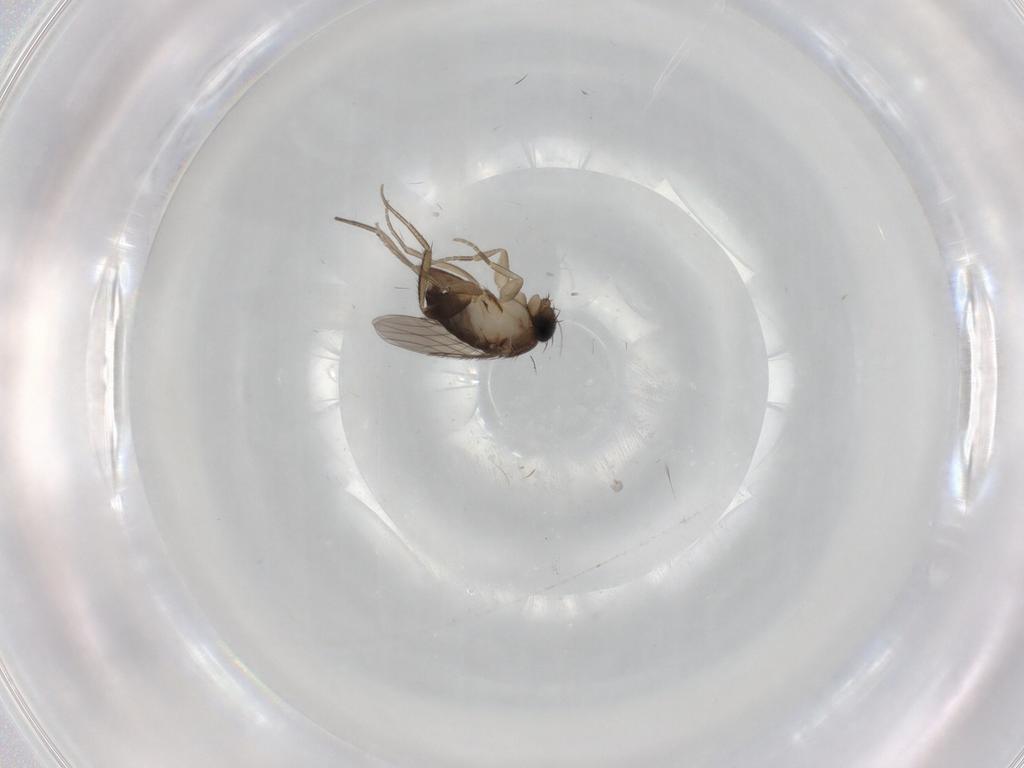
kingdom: Animalia
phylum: Arthropoda
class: Insecta
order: Diptera
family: Phoridae
